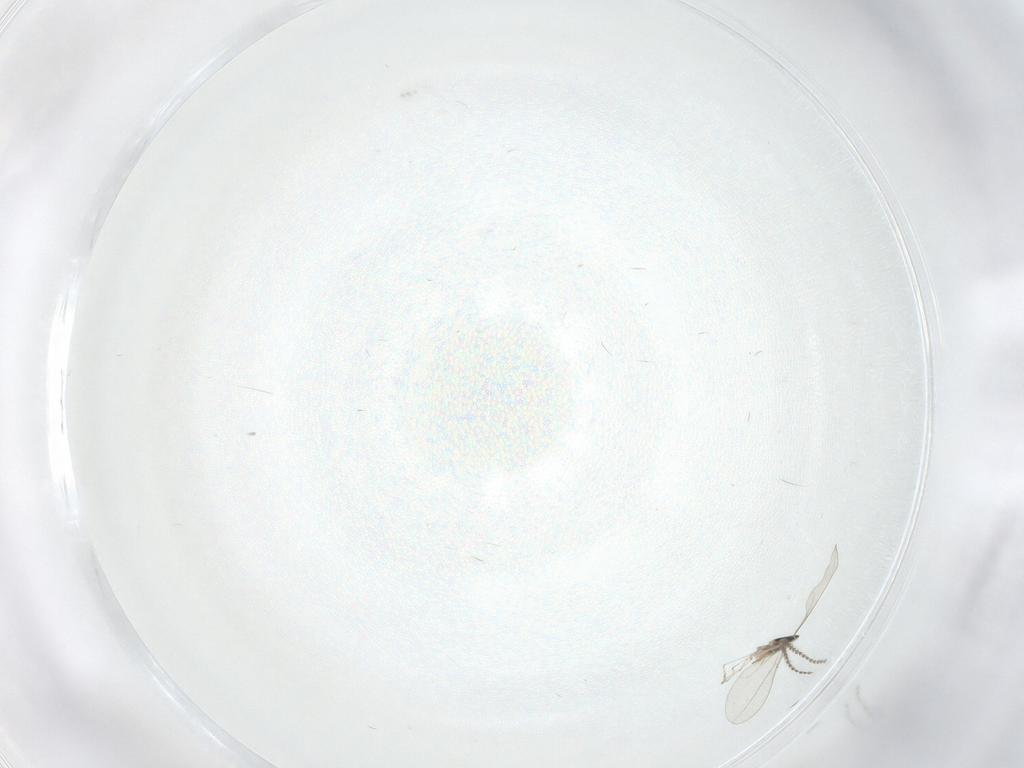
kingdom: Animalia
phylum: Arthropoda
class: Insecta
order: Diptera
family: Cecidomyiidae
